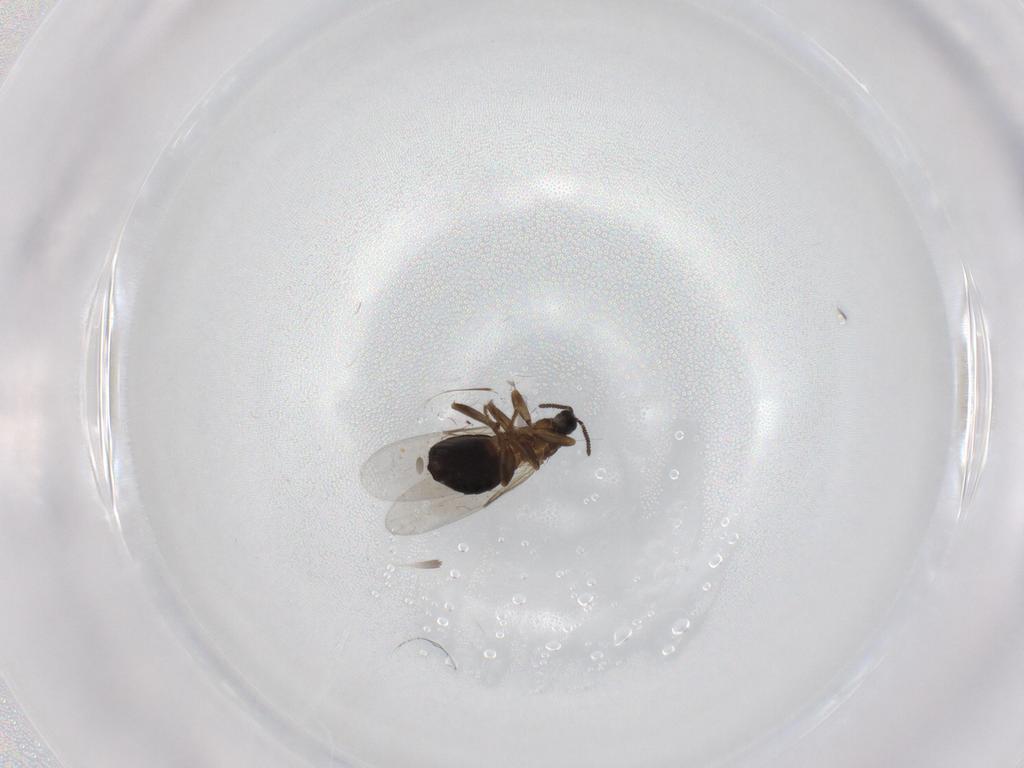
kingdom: Animalia
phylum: Arthropoda
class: Insecta
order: Diptera
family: Scatopsidae
